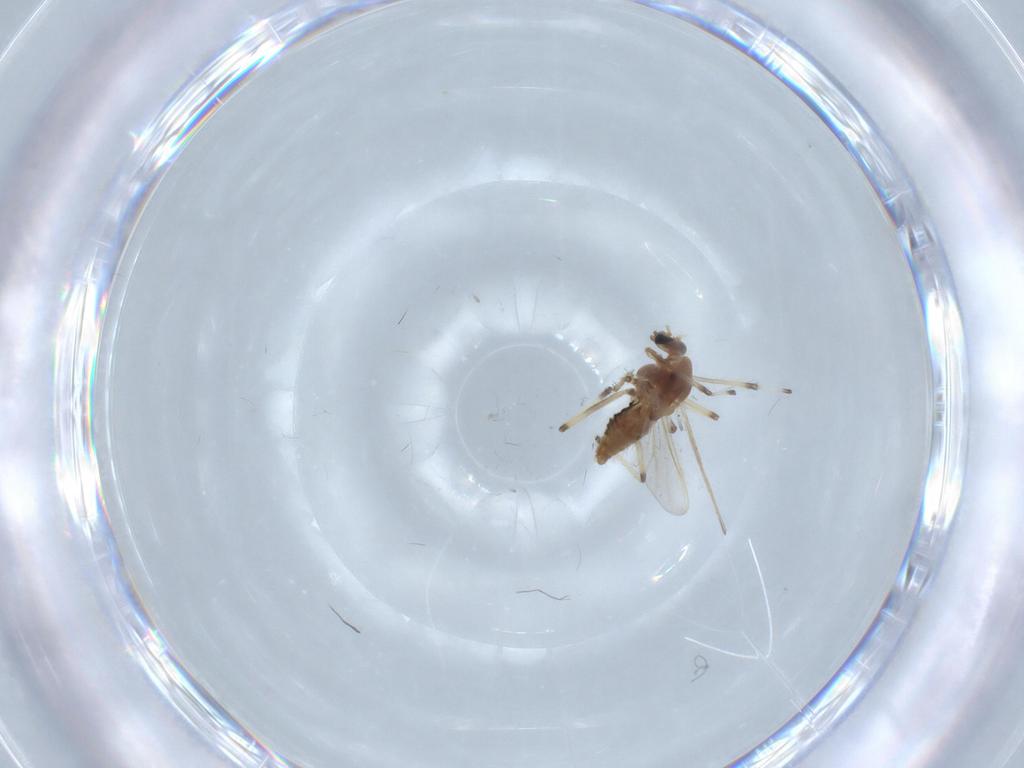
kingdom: Animalia
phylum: Arthropoda
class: Insecta
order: Diptera
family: Chironomidae
